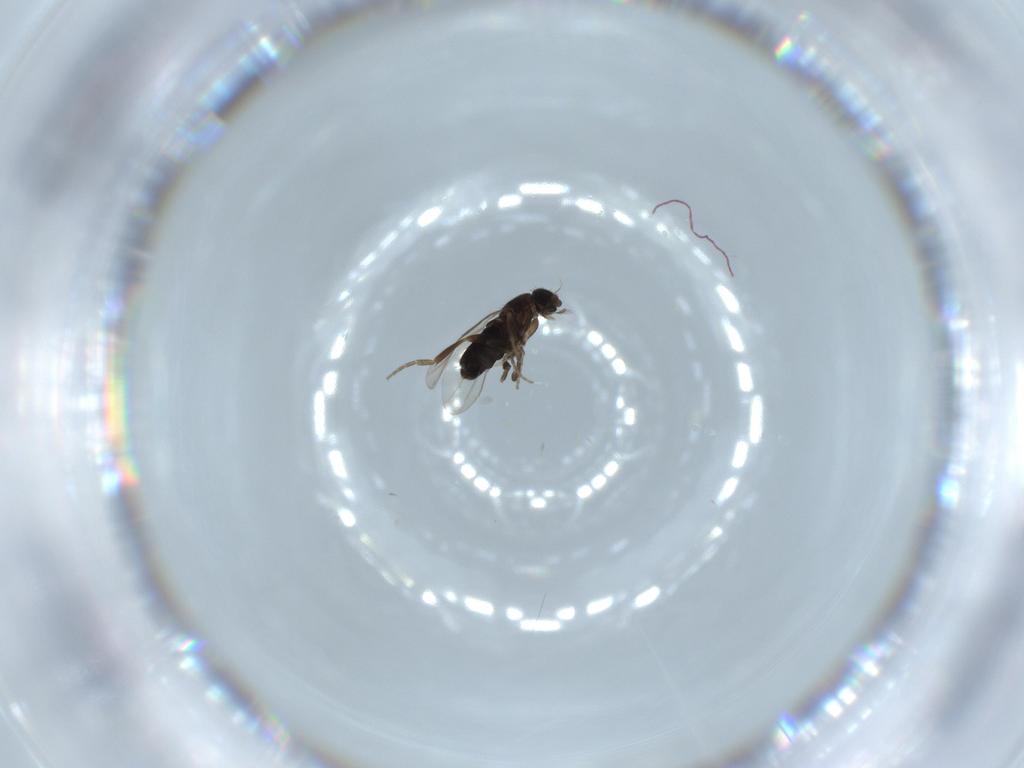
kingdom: Animalia
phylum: Arthropoda
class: Insecta
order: Diptera
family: Phoridae
